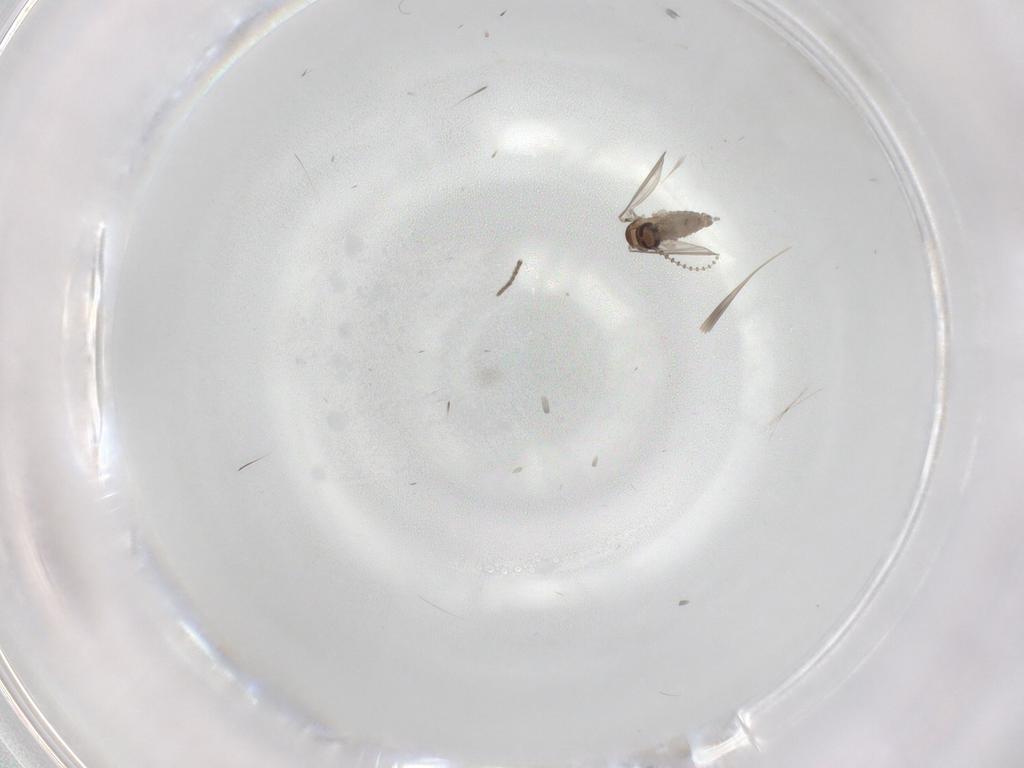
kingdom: Animalia
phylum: Arthropoda
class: Insecta
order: Diptera
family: Psychodidae
